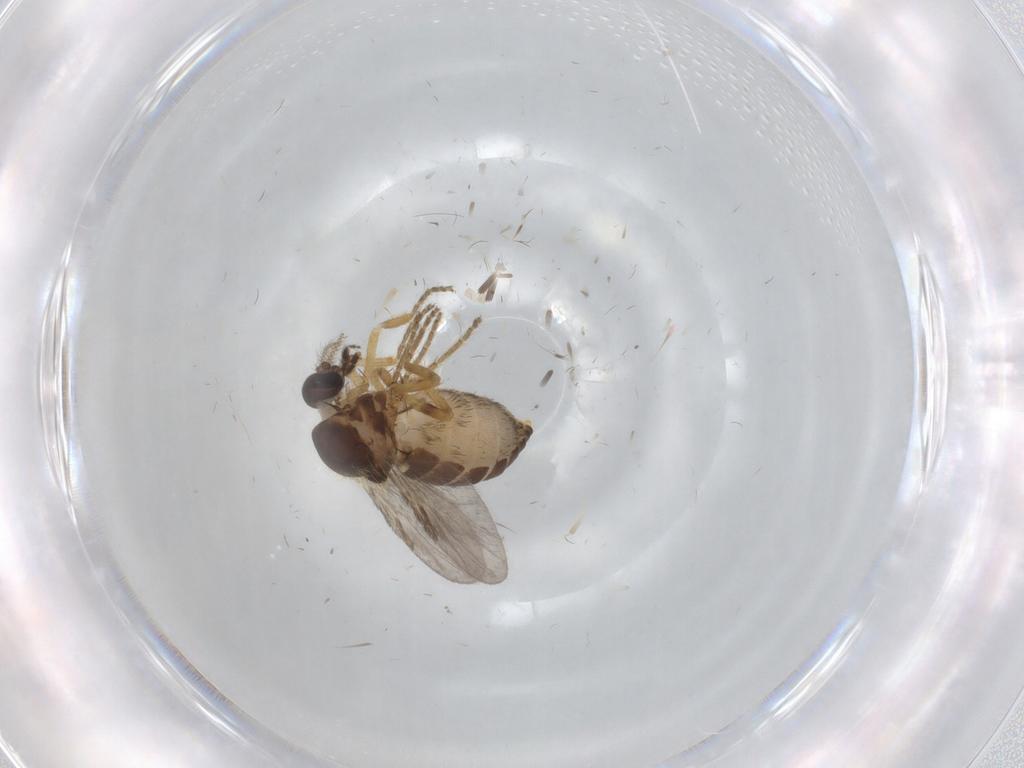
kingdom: Animalia
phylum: Arthropoda
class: Insecta
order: Diptera
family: Ceratopogonidae
